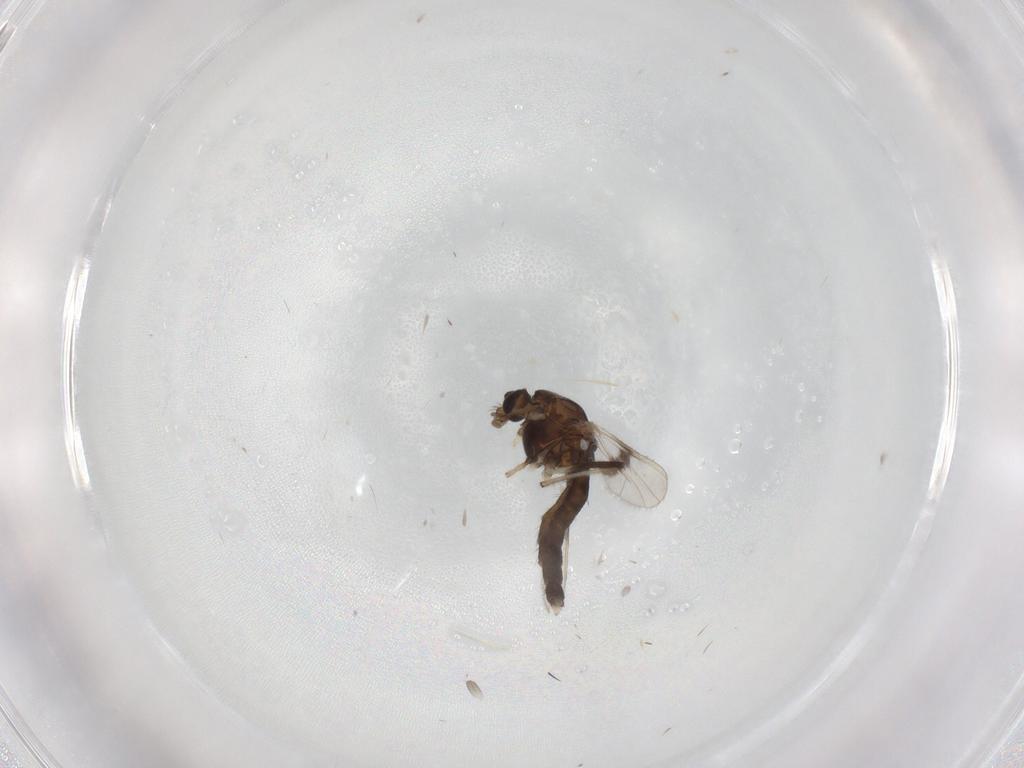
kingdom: Animalia
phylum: Arthropoda
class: Insecta
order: Diptera
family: Chironomidae
